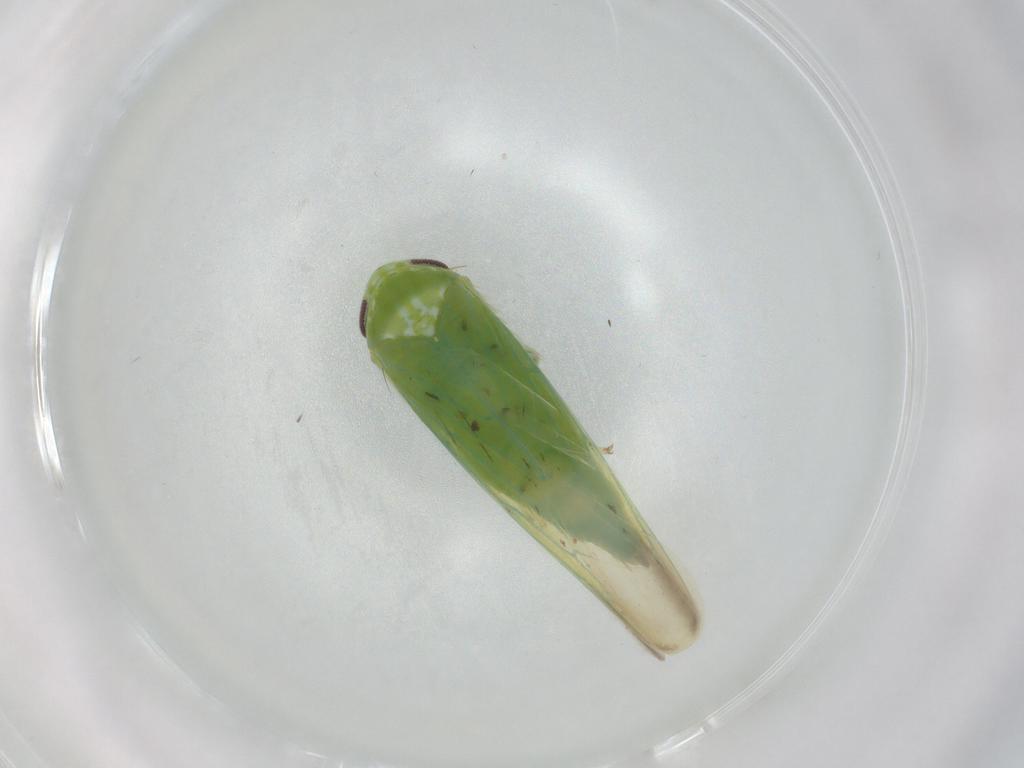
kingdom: Animalia
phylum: Arthropoda
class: Insecta
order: Hemiptera
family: Cicadellidae
